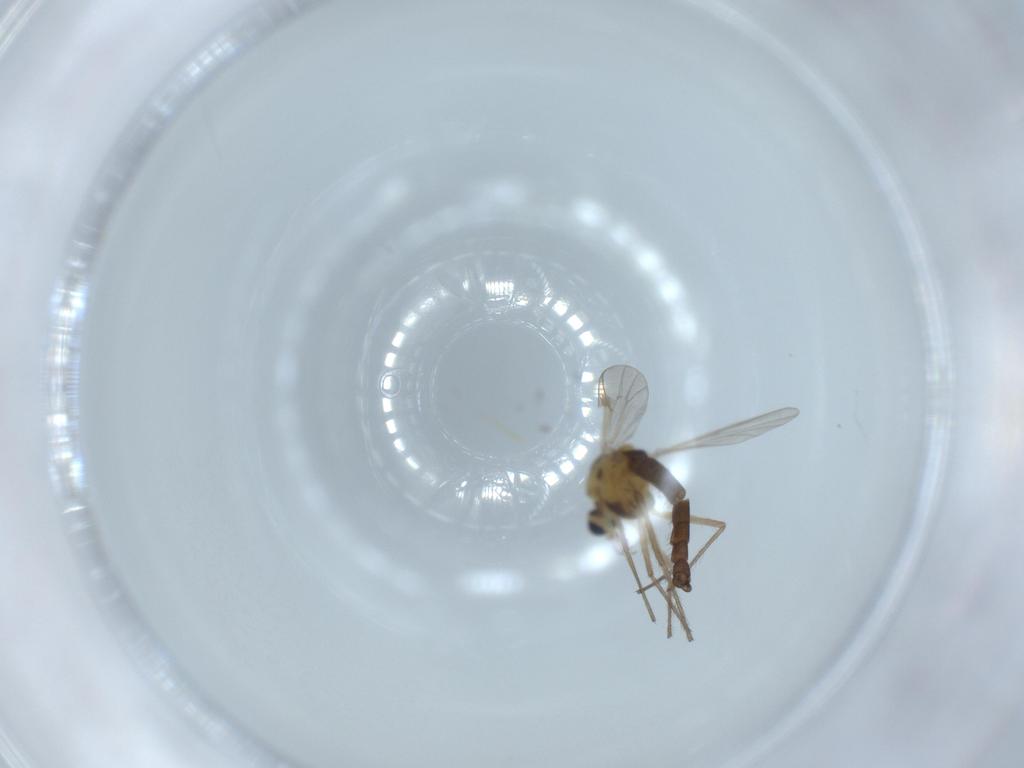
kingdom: Animalia
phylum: Arthropoda
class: Insecta
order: Diptera
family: Chironomidae
